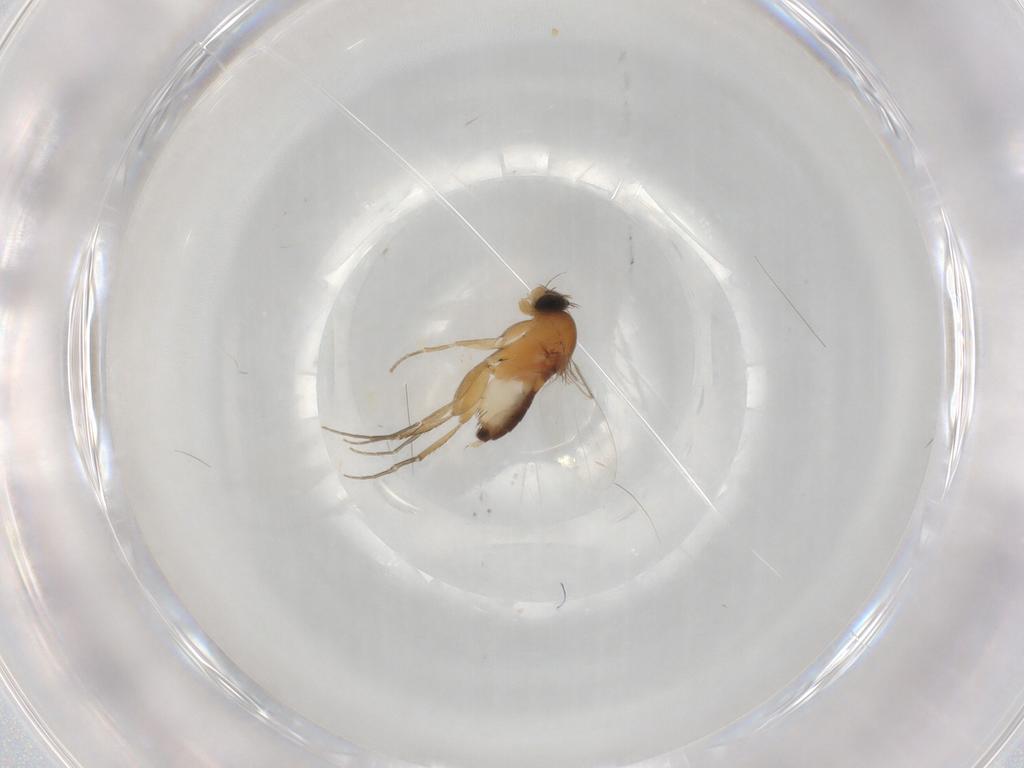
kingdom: Animalia
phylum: Arthropoda
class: Insecta
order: Diptera
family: Phoridae
